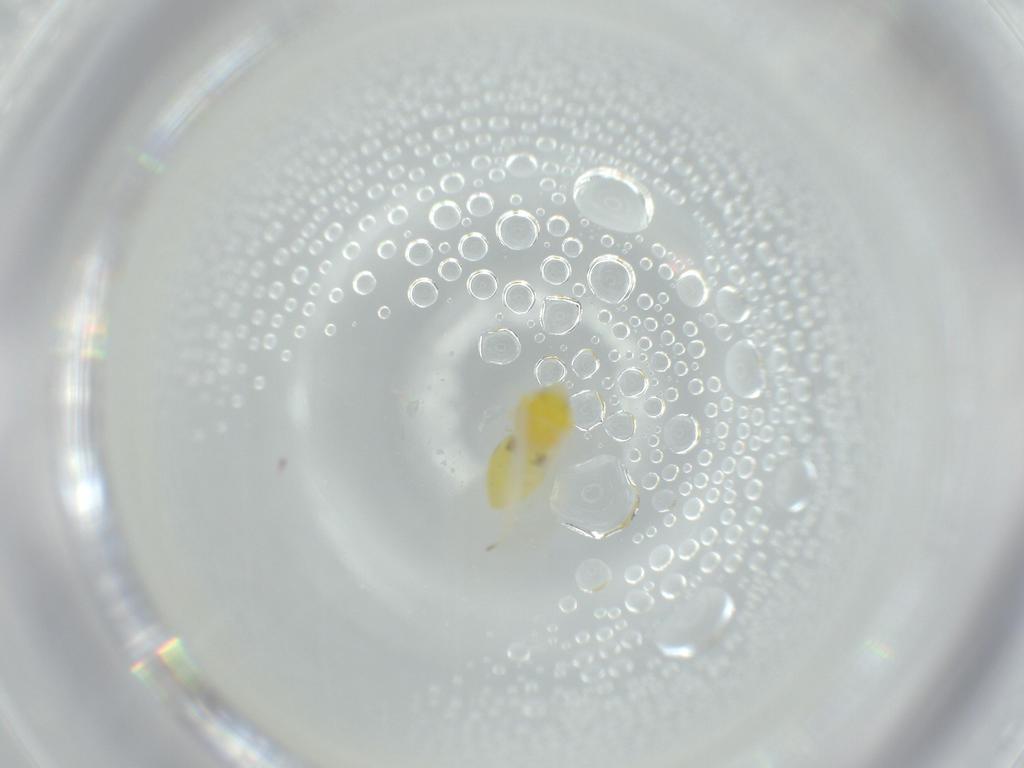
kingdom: Animalia
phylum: Arthropoda
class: Insecta
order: Hemiptera
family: Aleyrodidae
